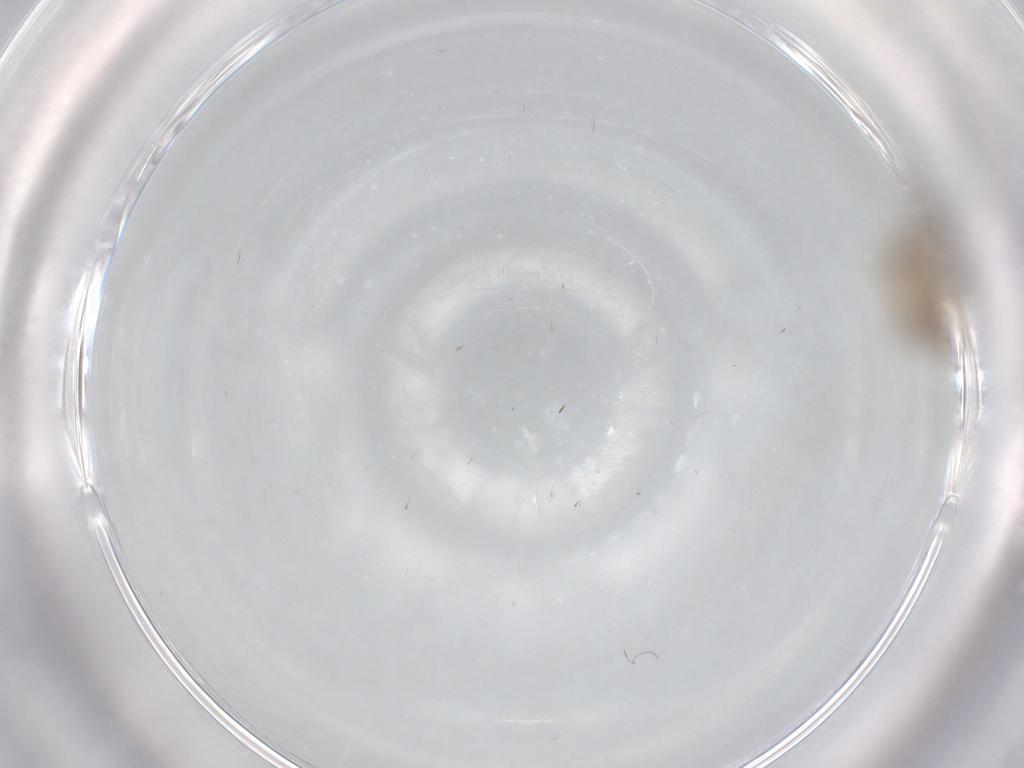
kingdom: Animalia
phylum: Arthropoda
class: Insecta
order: Diptera
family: Cecidomyiidae
